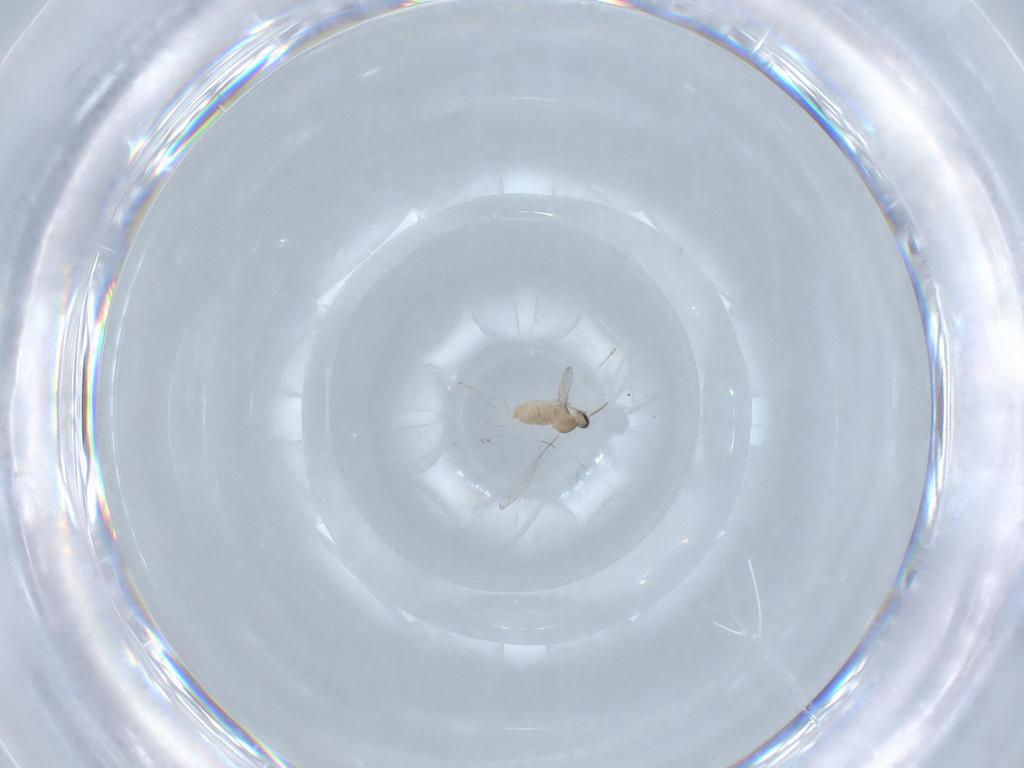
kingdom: Animalia
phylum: Arthropoda
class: Insecta
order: Diptera
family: Cecidomyiidae
